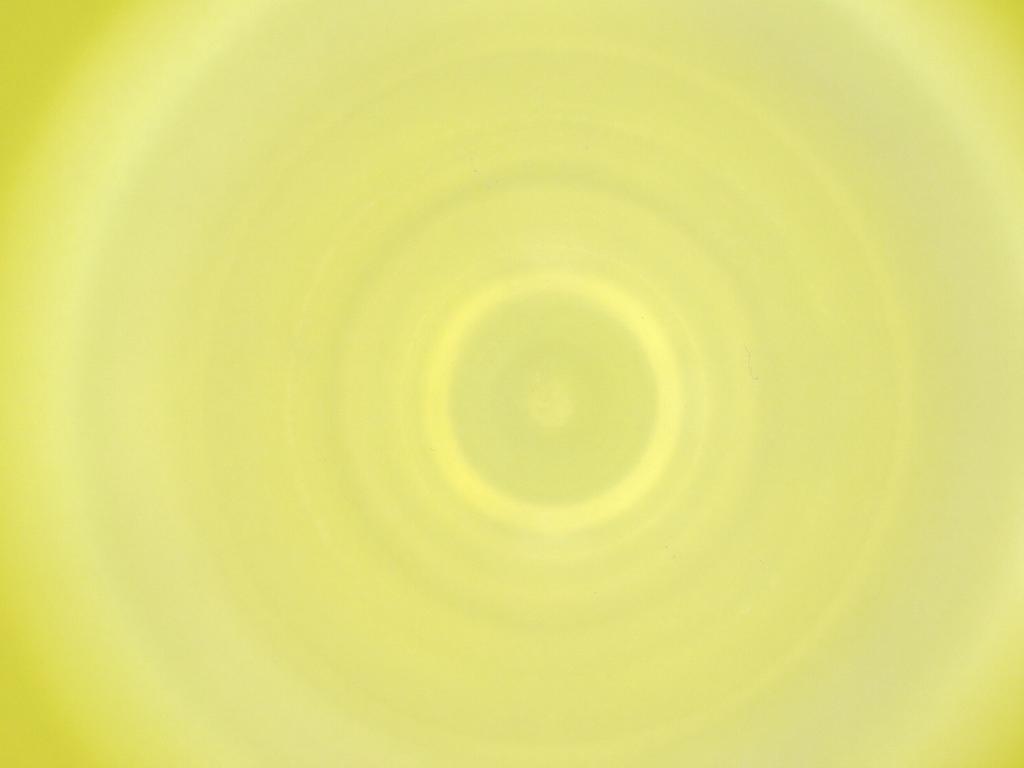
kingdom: Animalia
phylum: Arthropoda
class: Insecta
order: Diptera
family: Cecidomyiidae
